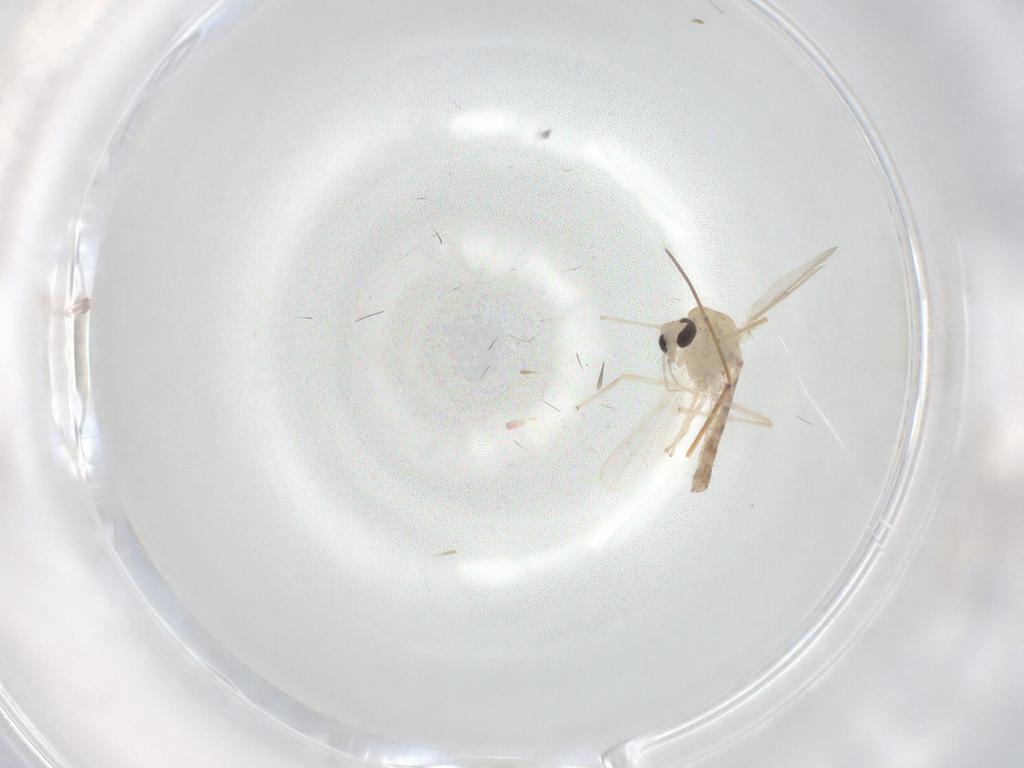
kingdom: Animalia
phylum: Arthropoda
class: Insecta
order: Diptera
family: Chironomidae
